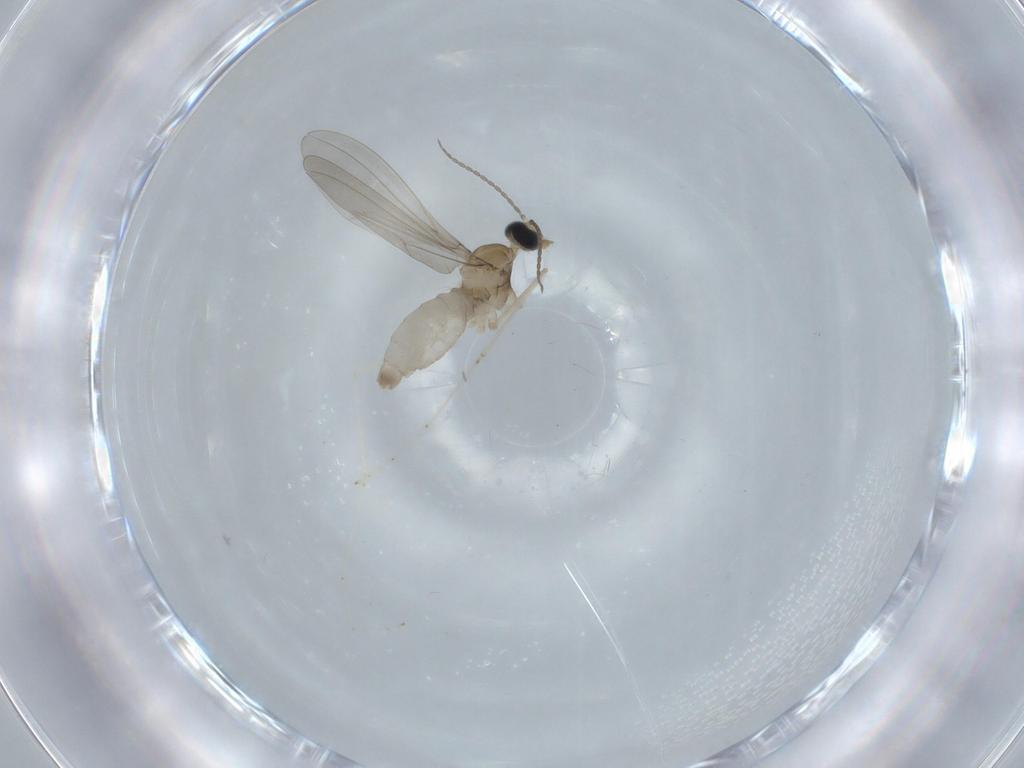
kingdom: Animalia
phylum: Arthropoda
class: Insecta
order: Diptera
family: Cecidomyiidae
